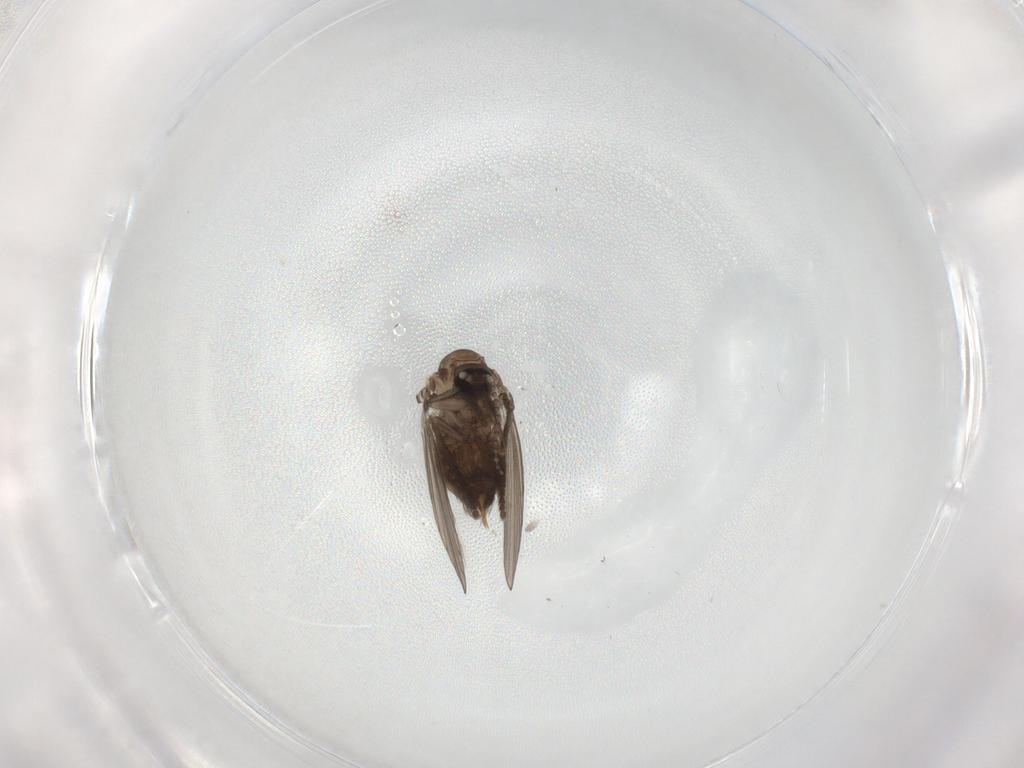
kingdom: Animalia
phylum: Arthropoda
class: Insecta
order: Diptera
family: Psychodidae
